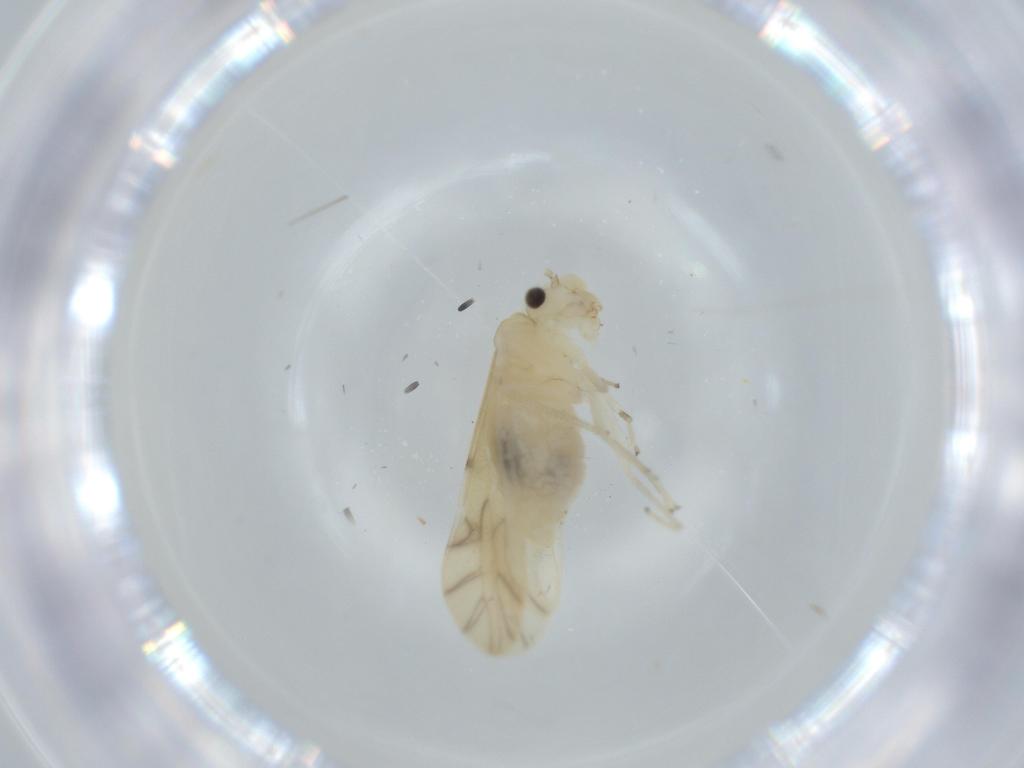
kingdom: Animalia
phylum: Arthropoda
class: Insecta
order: Psocodea
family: Caeciliusidae
